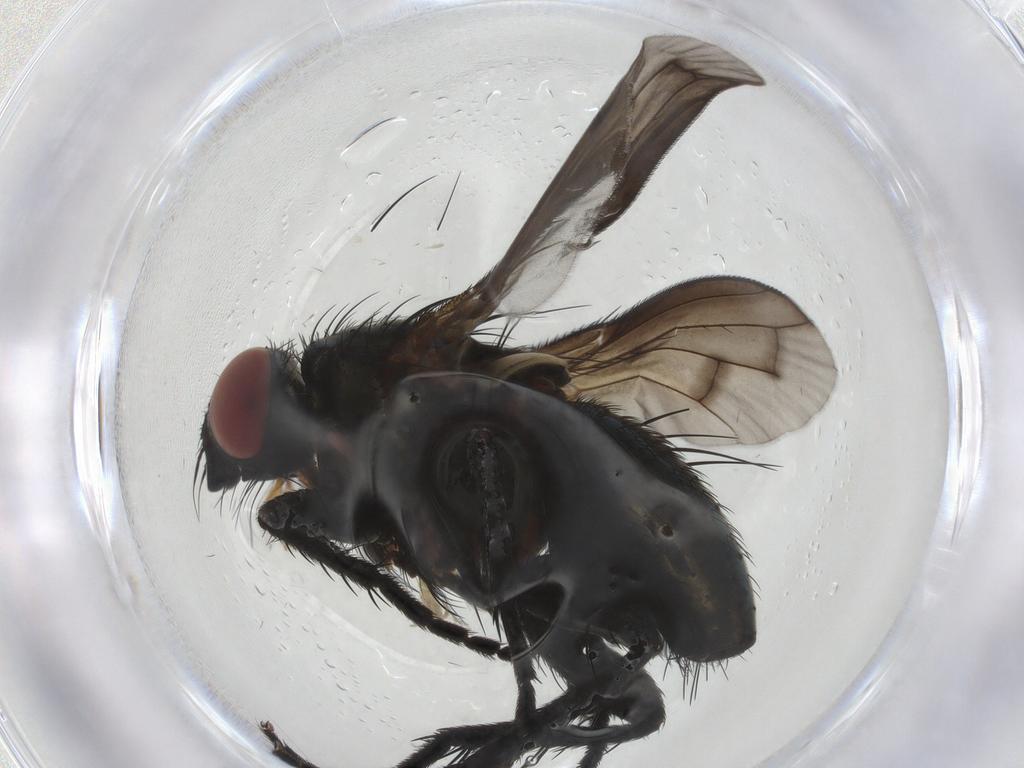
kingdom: Animalia
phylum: Arthropoda
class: Insecta
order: Diptera
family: Tachinidae
